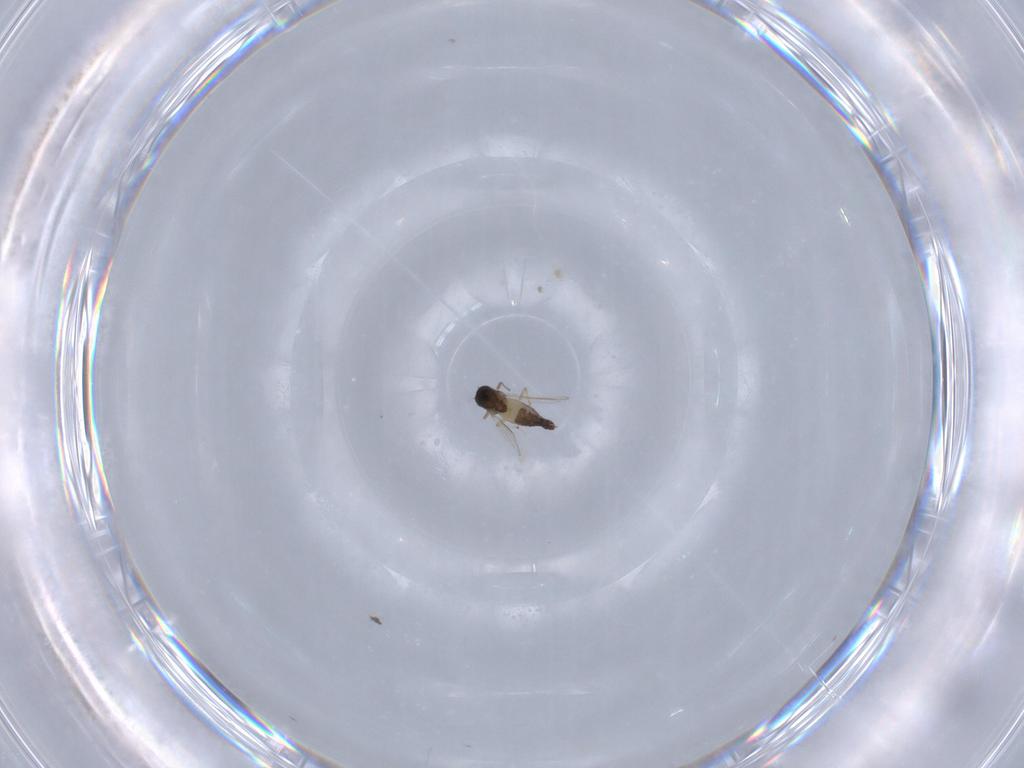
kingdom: Animalia
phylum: Arthropoda
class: Insecta
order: Diptera
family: Chironomidae
